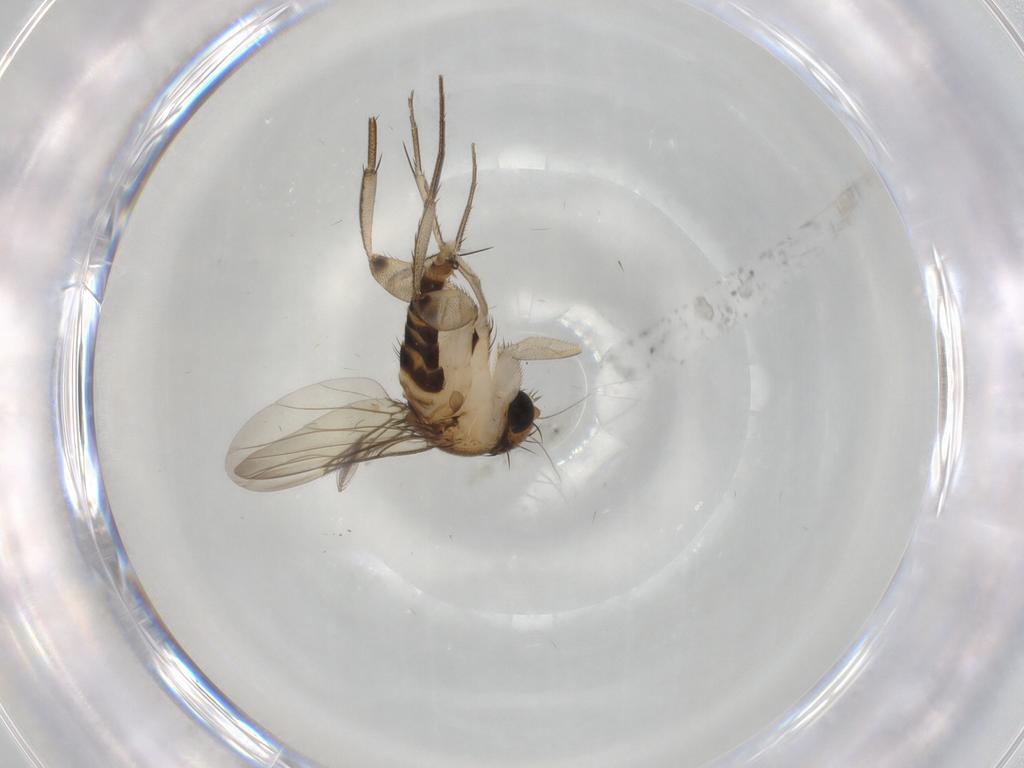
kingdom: Animalia
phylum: Arthropoda
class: Insecta
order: Diptera
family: Phoridae
